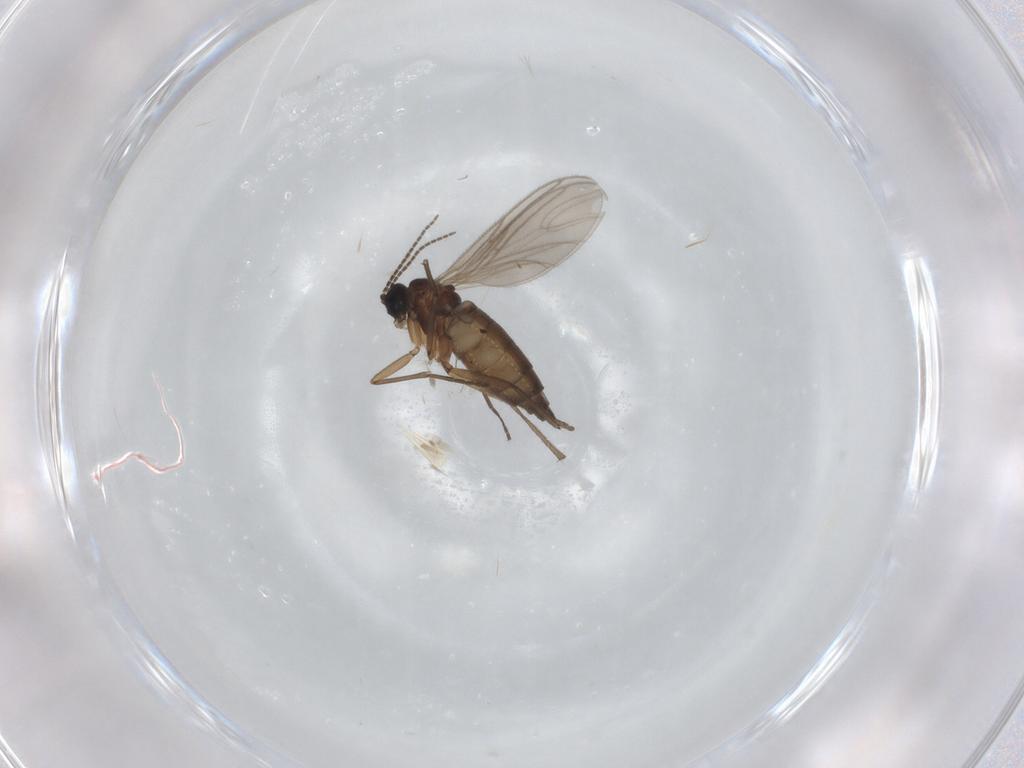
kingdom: Animalia
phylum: Arthropoda
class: Insecta
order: Diptera
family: Sciaridae
